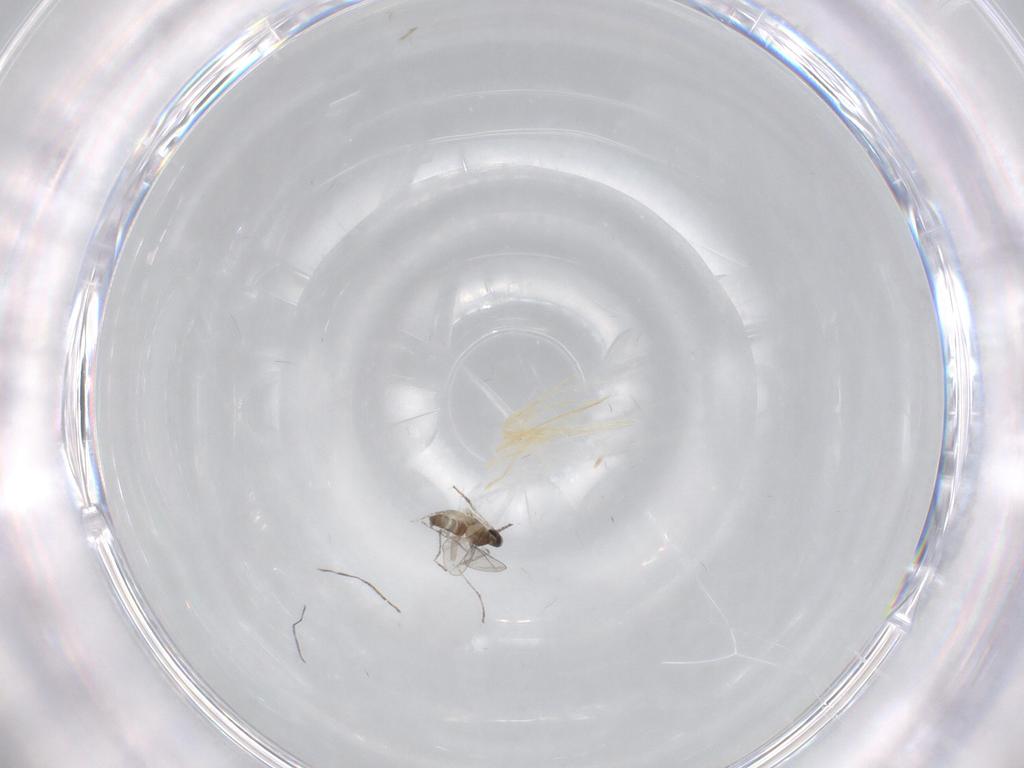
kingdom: Animalia
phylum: Arthropoda
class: Insecta
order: Diptera
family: Cecidomyiidae
